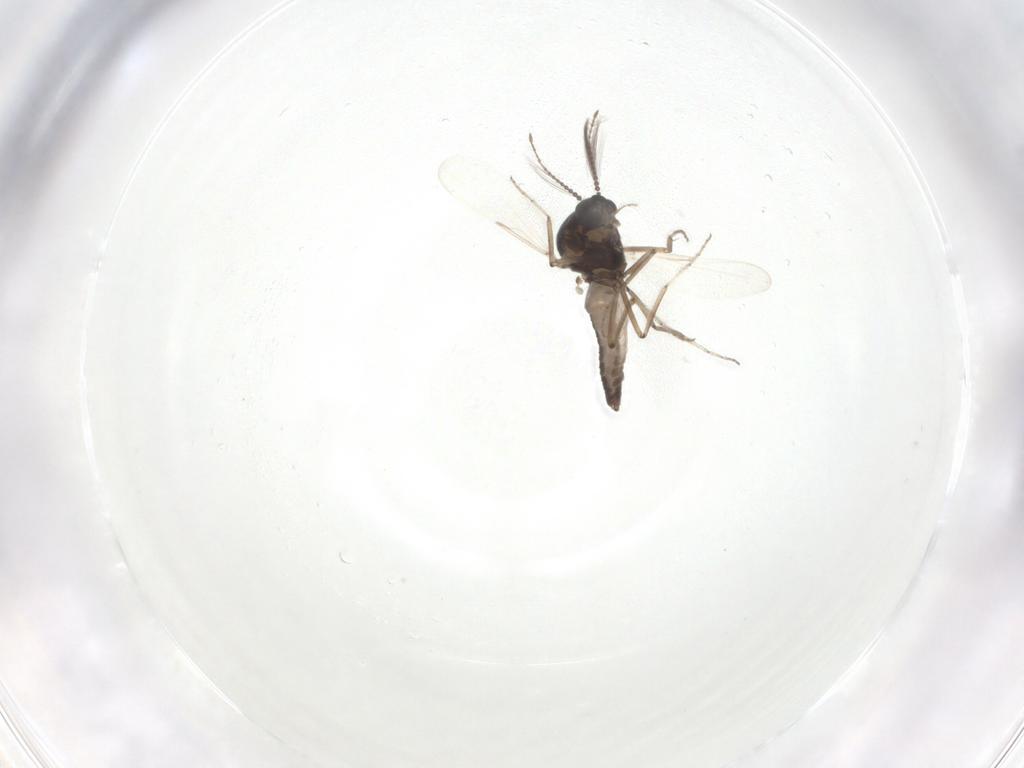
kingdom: Animalia
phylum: Arthropoda
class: Insecta
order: Diptera
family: Ceratopogonidae
